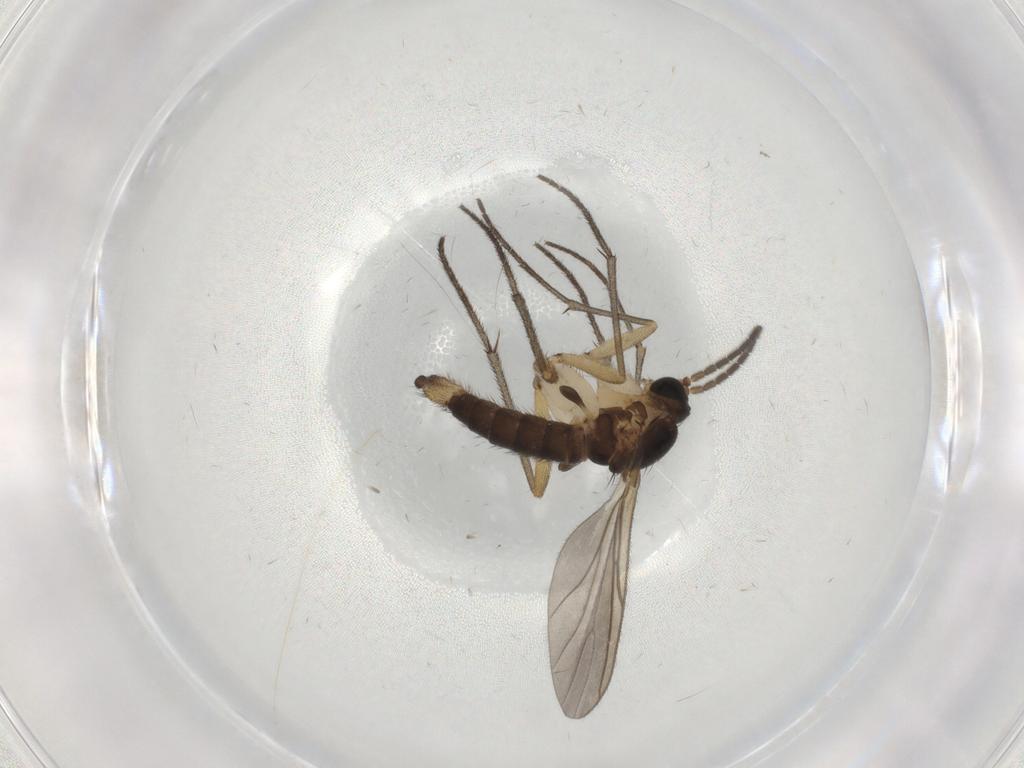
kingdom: Animalia
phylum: Arthropoda
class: Insecta
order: Diptera
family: Sciaridae
